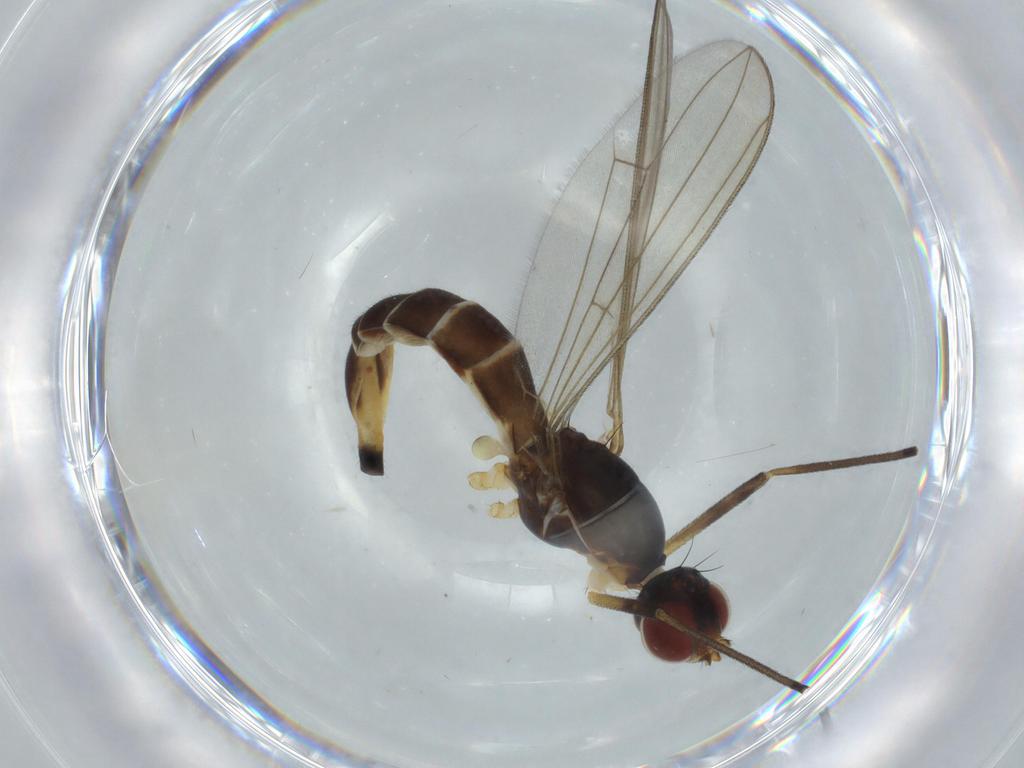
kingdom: Animalia
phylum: Arthropoda
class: Insecta
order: Diptera
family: Micropezidae
